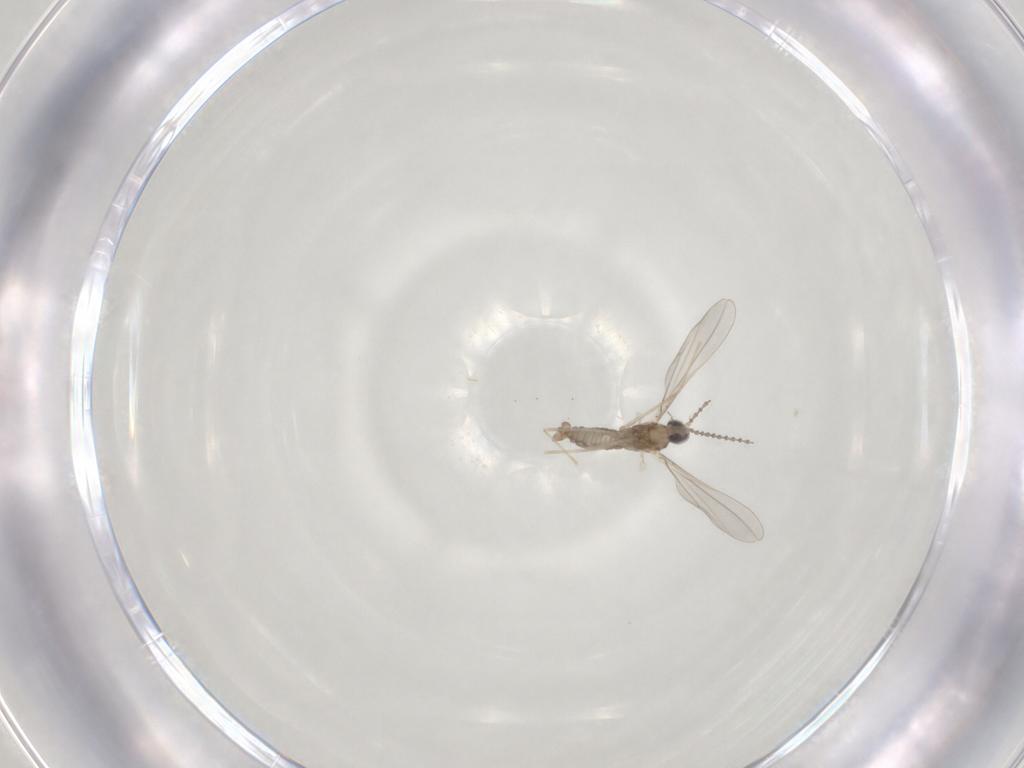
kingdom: Animalia
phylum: Arthropoda
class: Insecta
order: Diptera
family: Cecidomyiidae
